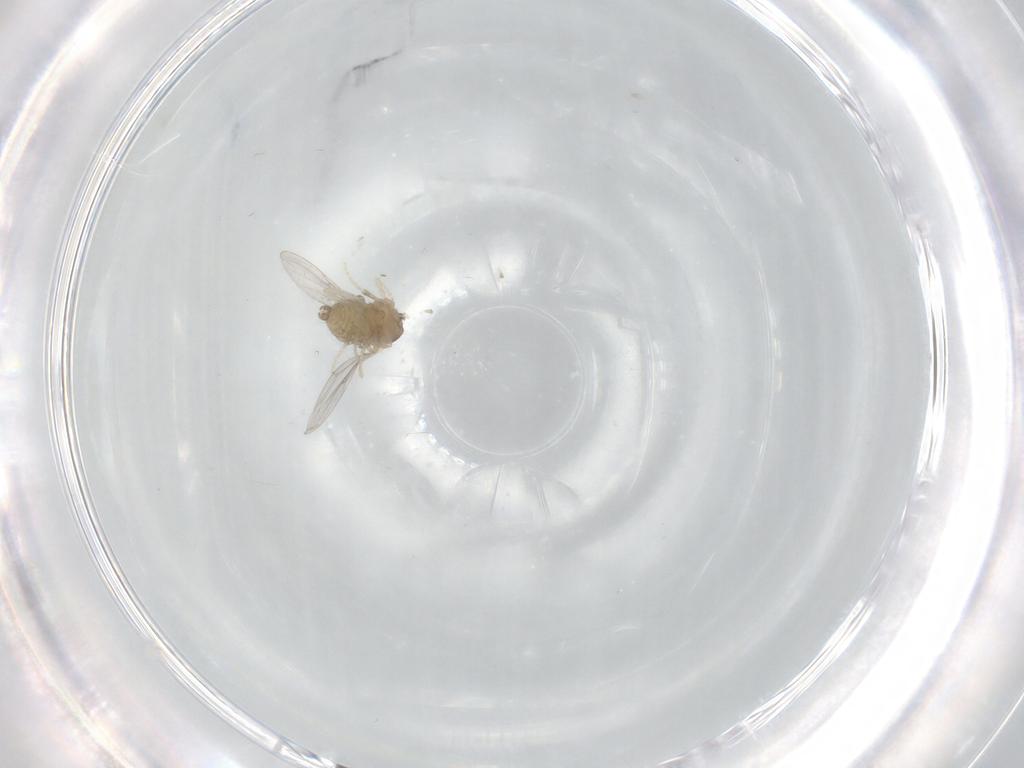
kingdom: Animalia
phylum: Arthropoda
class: Insecta
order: Diptera
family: Cecidomyiidae
